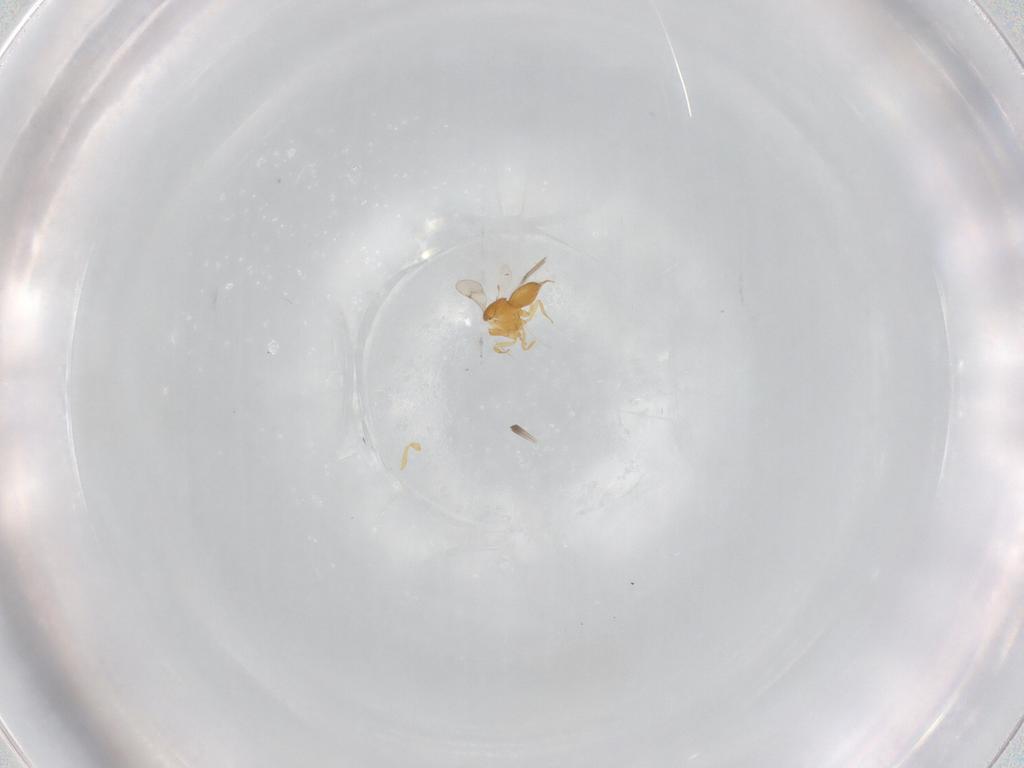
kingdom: Animalia
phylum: Arthropoda
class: Insecta
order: Hymenoptera
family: Scelionidae
